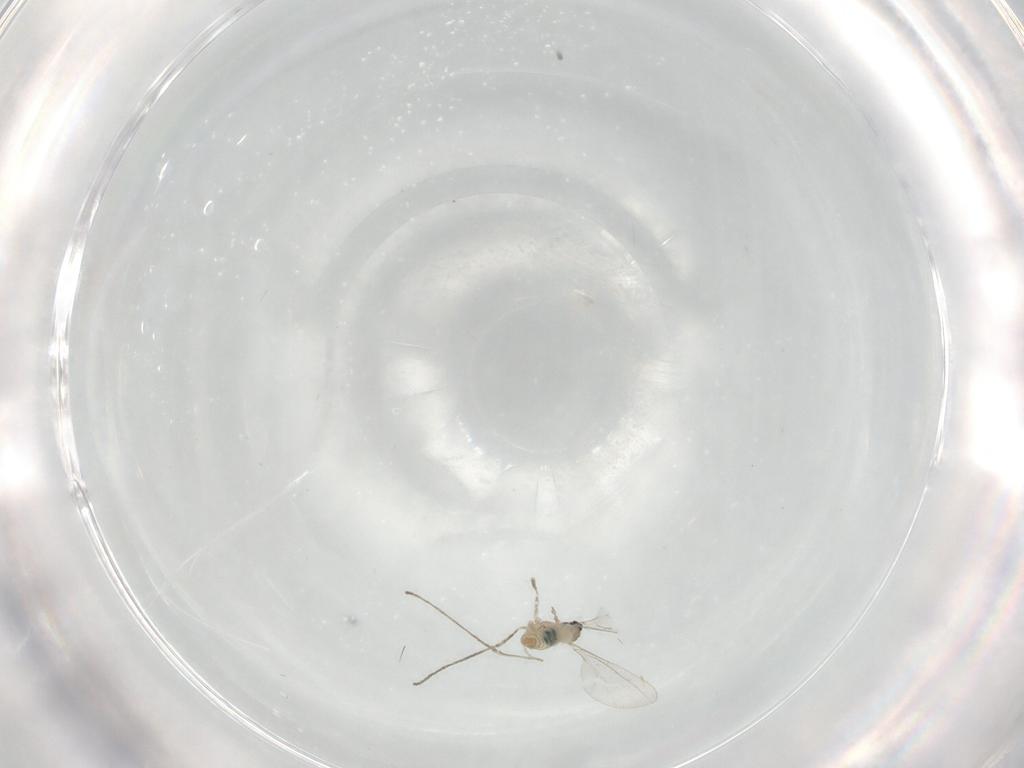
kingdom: Animalia
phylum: Arthropoda
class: Insecta
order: Diptera
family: Cecidomyiidae
